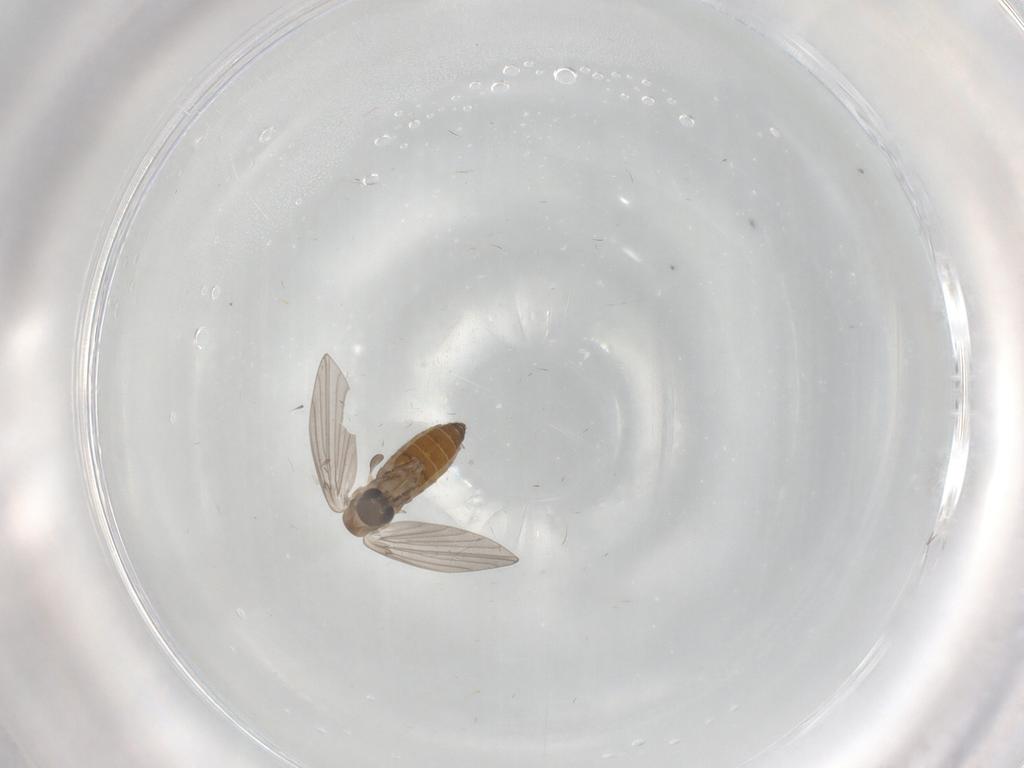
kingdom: Animalia
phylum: Arthropoda
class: Insecta
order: Diptera
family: Chironomidae
